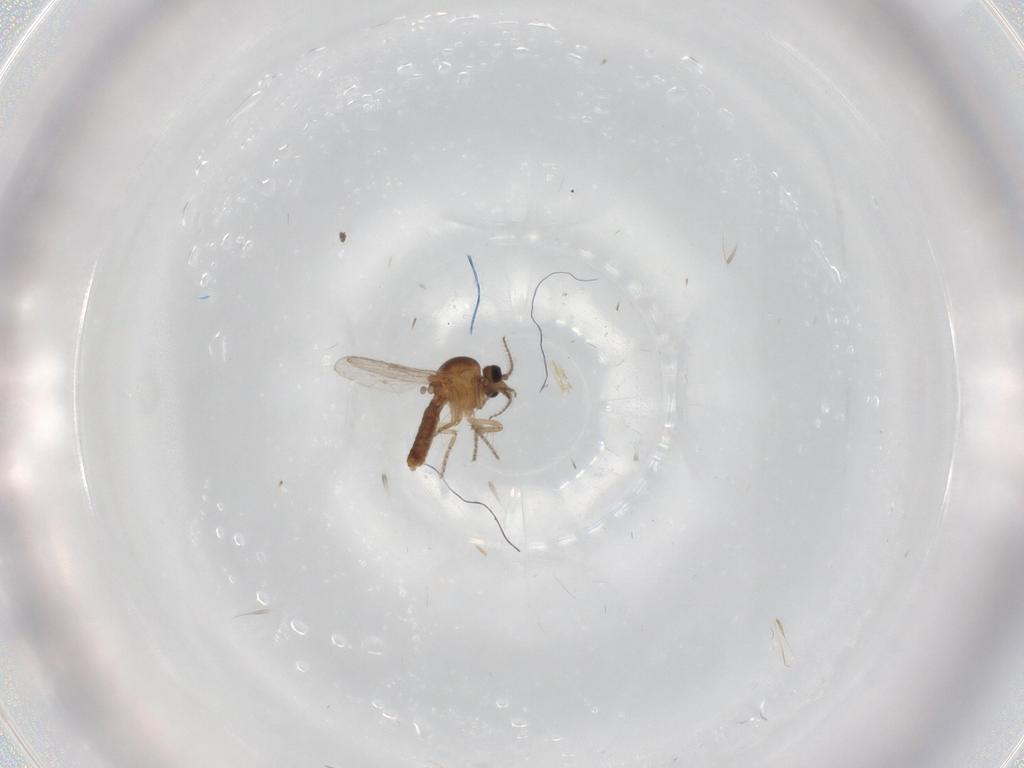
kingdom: Animalia
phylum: Arthropoda
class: Insecta
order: Diptera
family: Ceratopogonidae
